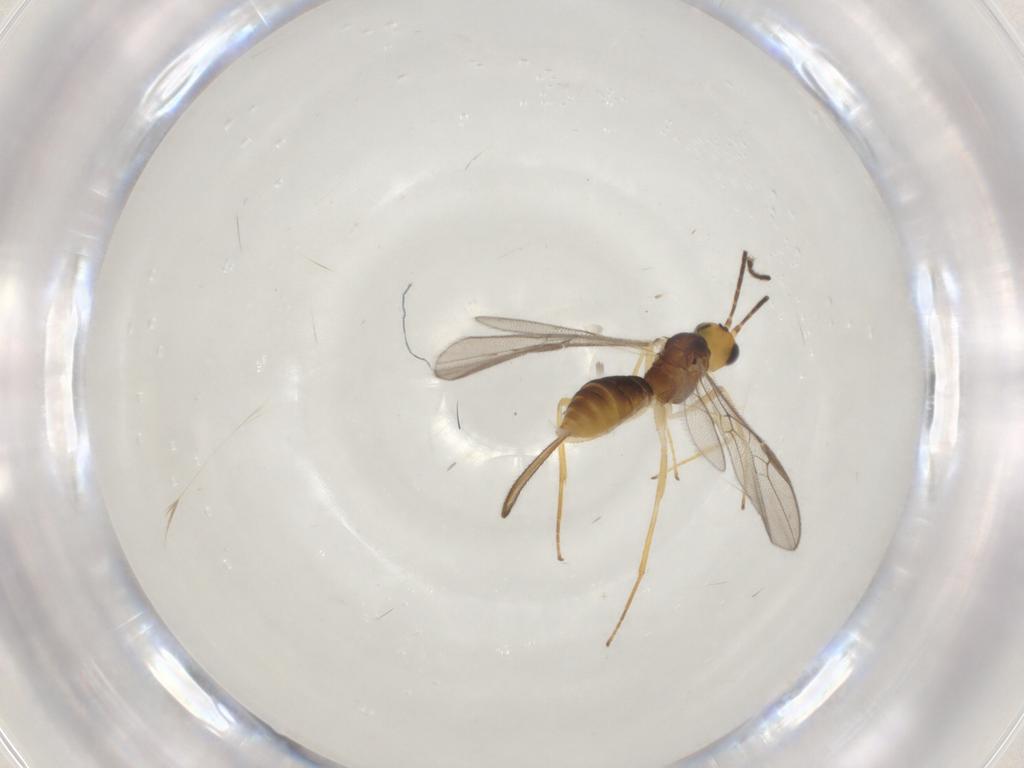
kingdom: Animalia
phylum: Arthropoda
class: Insecta
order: Hymenoptera
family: Braconidae
